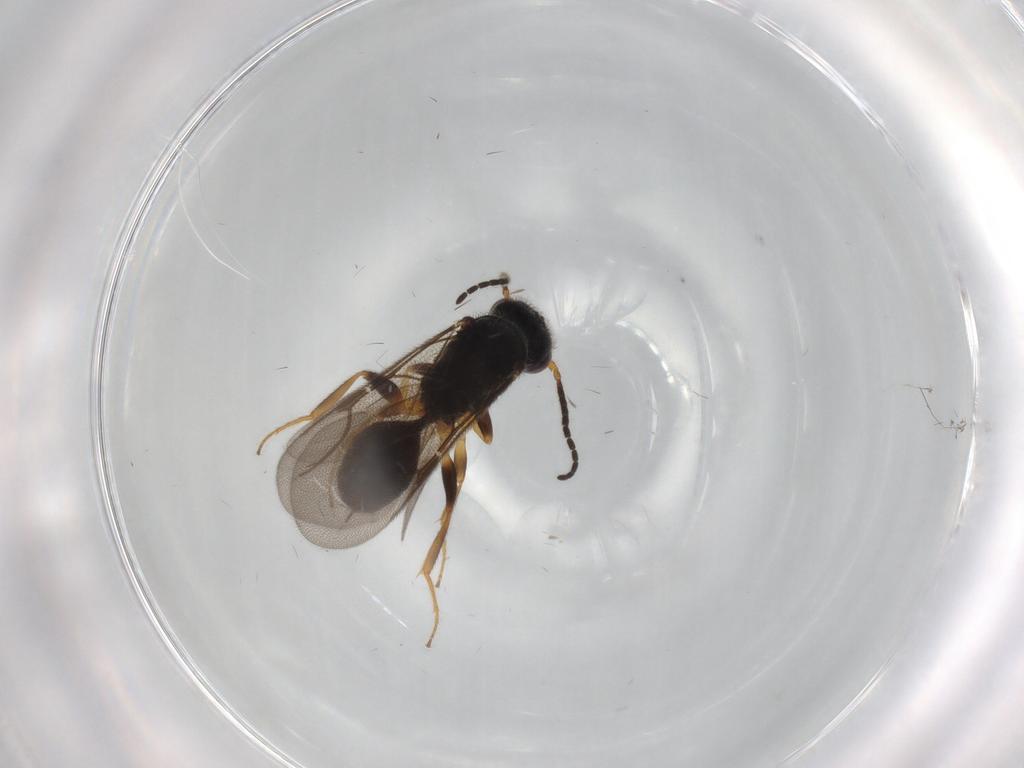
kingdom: Animalia
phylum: Arthropoda
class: Insecta
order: Hymenoptera
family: Bethylidae
